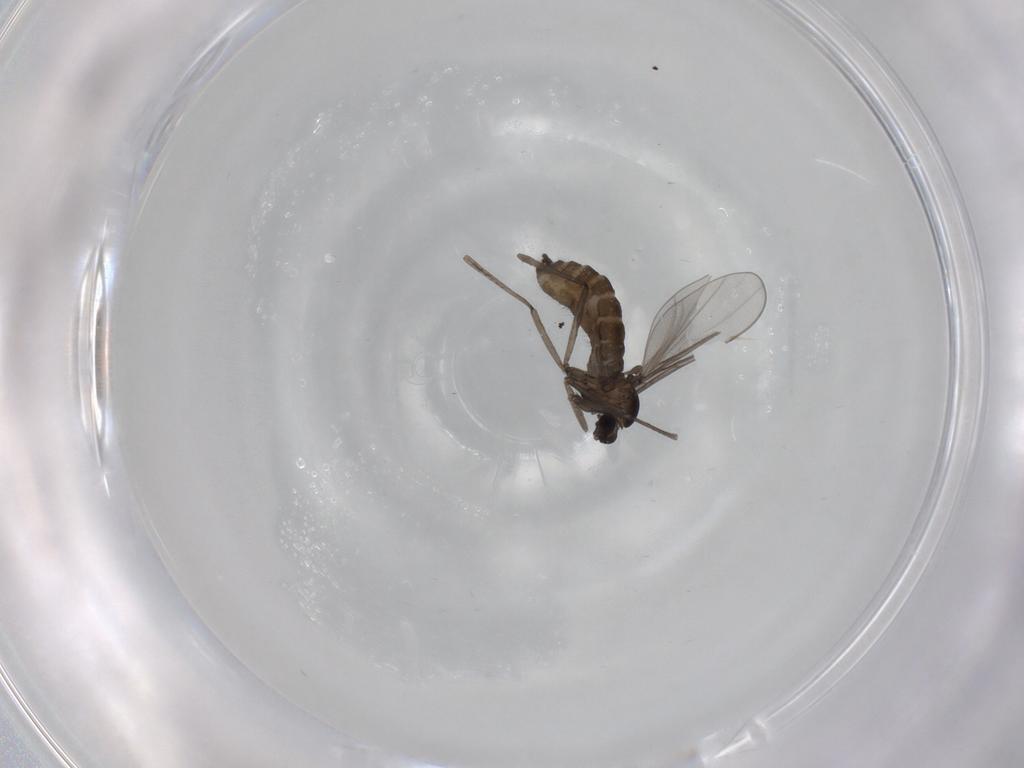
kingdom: Animalia
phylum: Arthropoda
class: Insecta
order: Diptera
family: Cecidomyiidae
